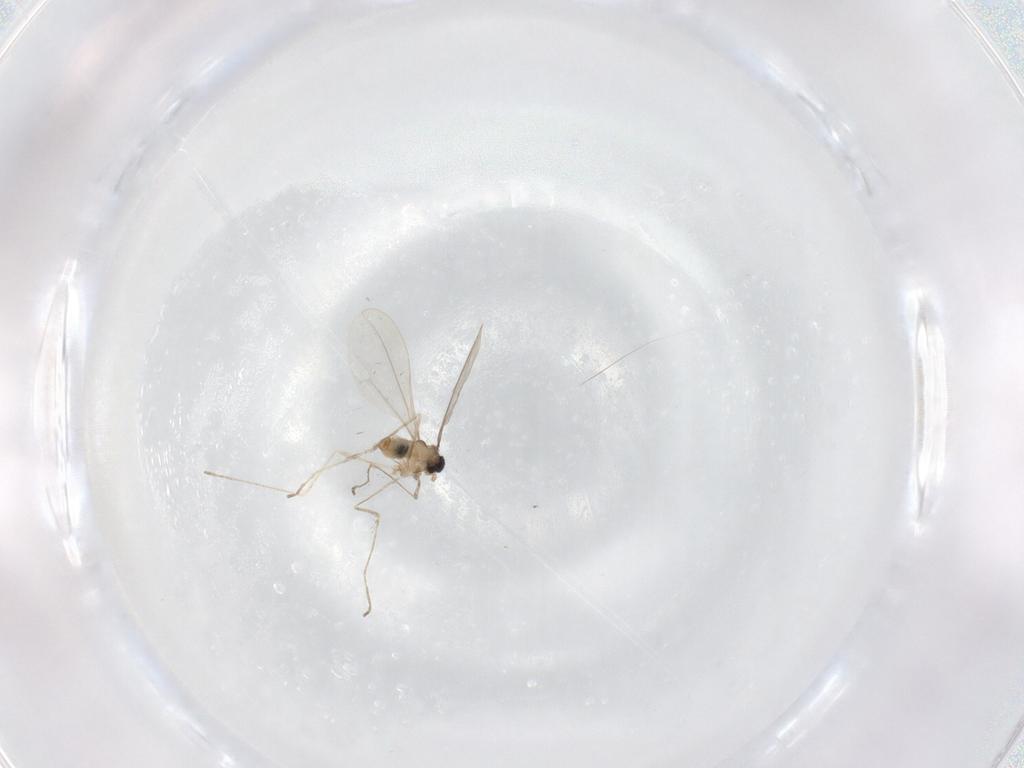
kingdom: Animalia
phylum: Arthropoda
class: Insecta
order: Diptera
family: Cecidomyiidae
